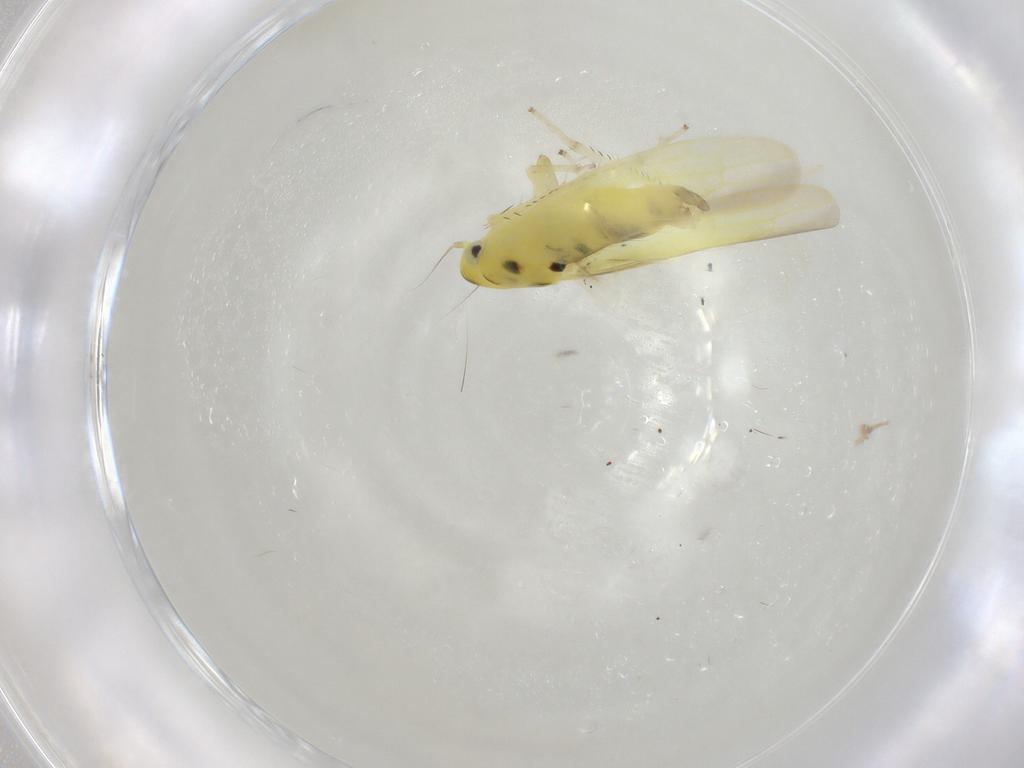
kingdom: Animalia
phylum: Arthropoda
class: Insecta
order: Hemiptera
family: Cicadellidae
